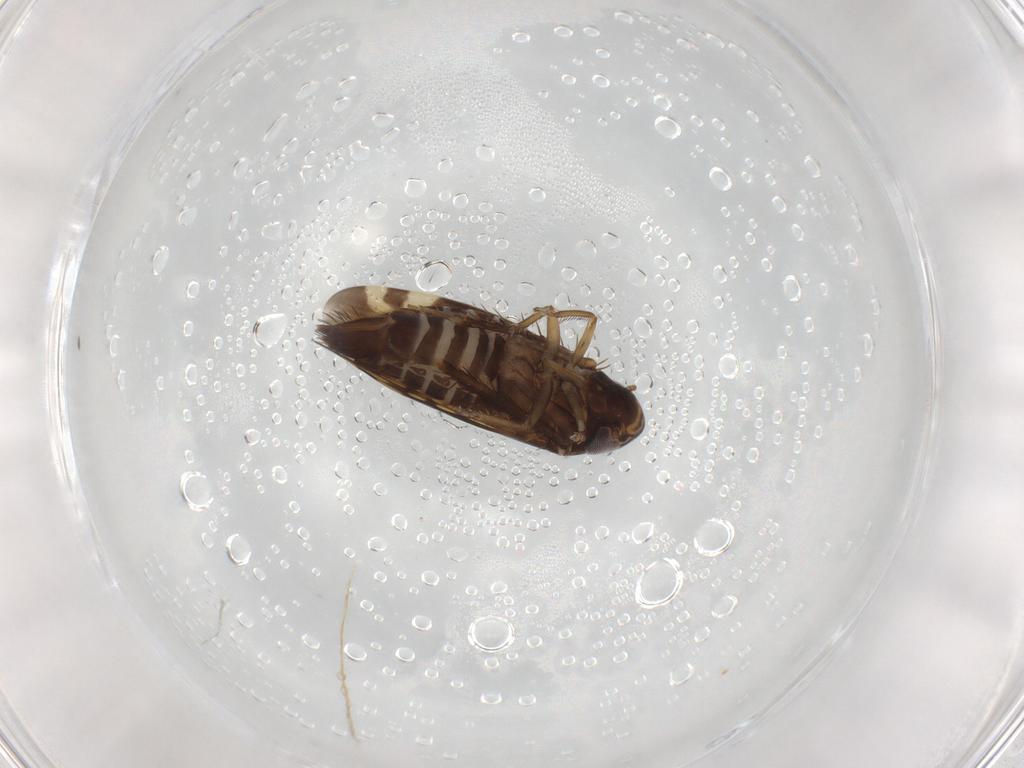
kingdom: Animalia
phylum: Arthropoda
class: Insecta
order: Hemiptera
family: Cicadellidae
